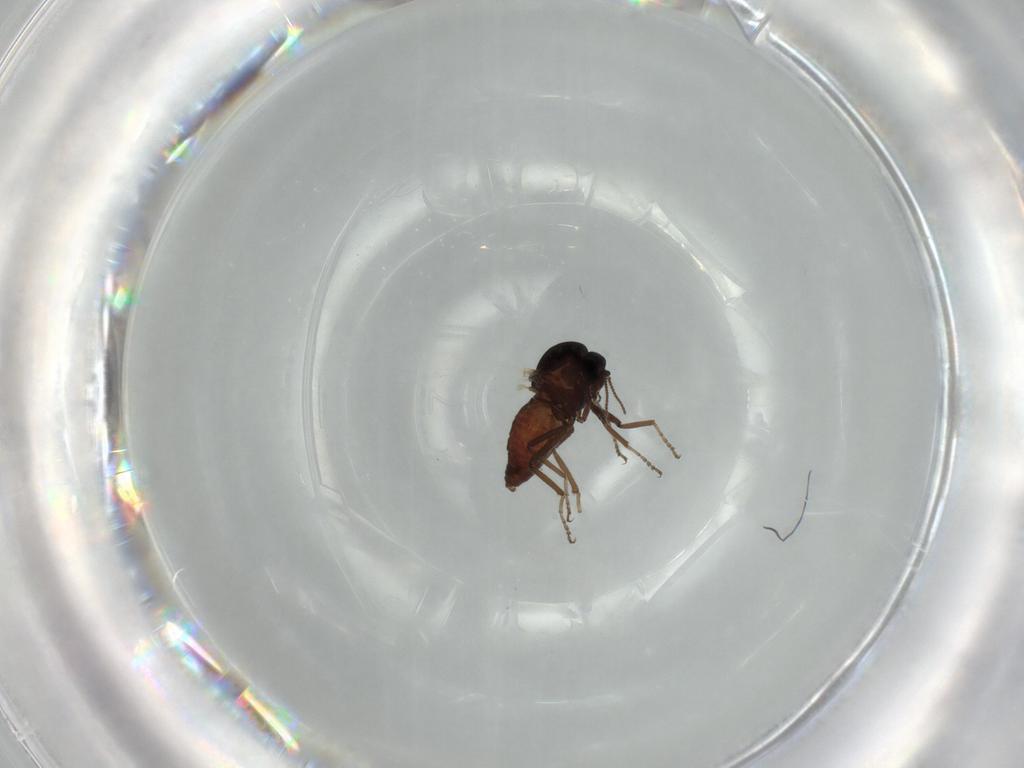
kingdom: Animalia
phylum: Arthropoda
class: Insecta
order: Diptera
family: Ceratopogonidae
